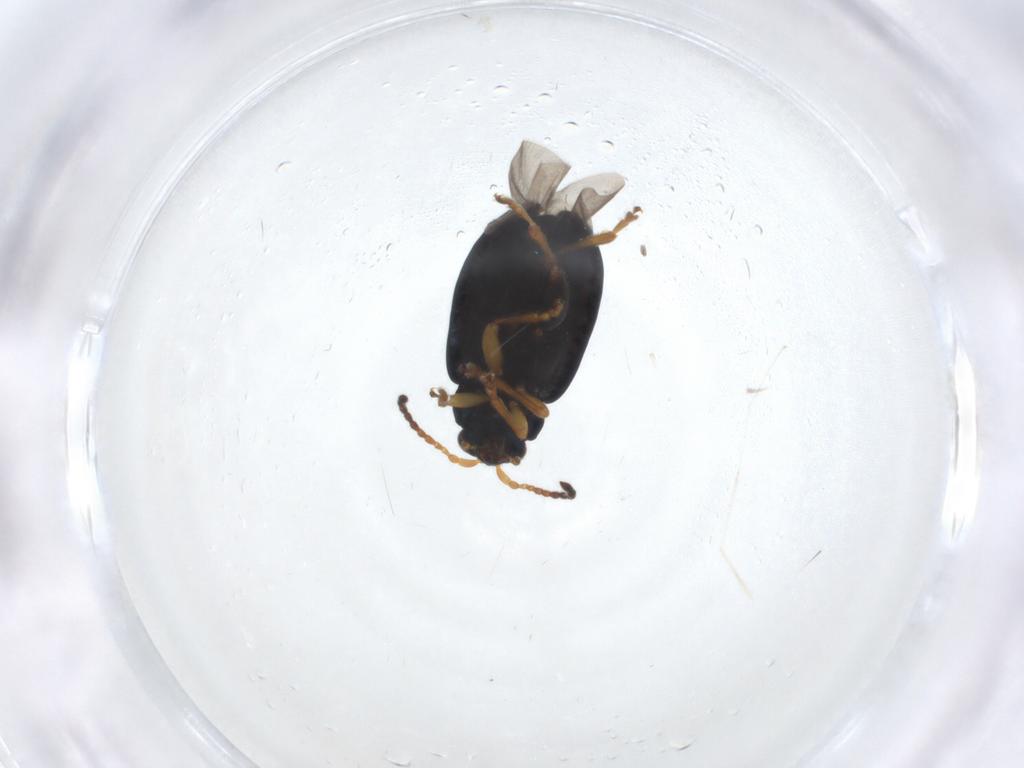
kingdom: Animalia
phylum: Arthropoda
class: Insecta
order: Coleoptera
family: Chrysomelidae
